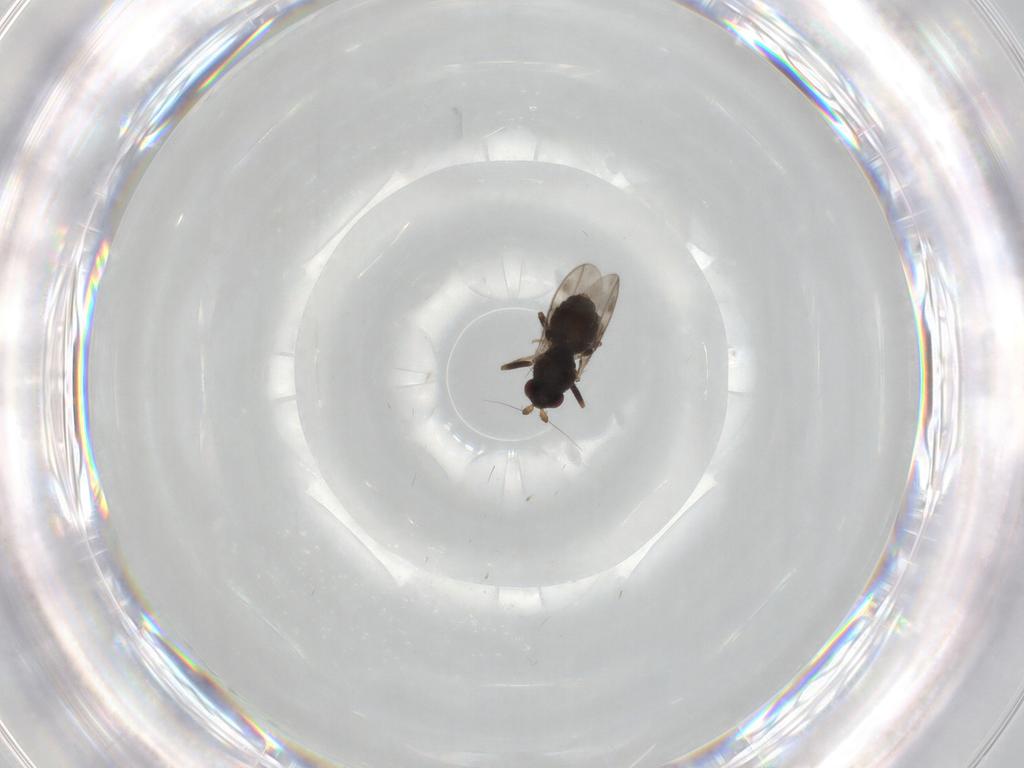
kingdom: Animalia
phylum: Arthropoda
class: Insecta
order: Diptera
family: Sphaeroceridae
